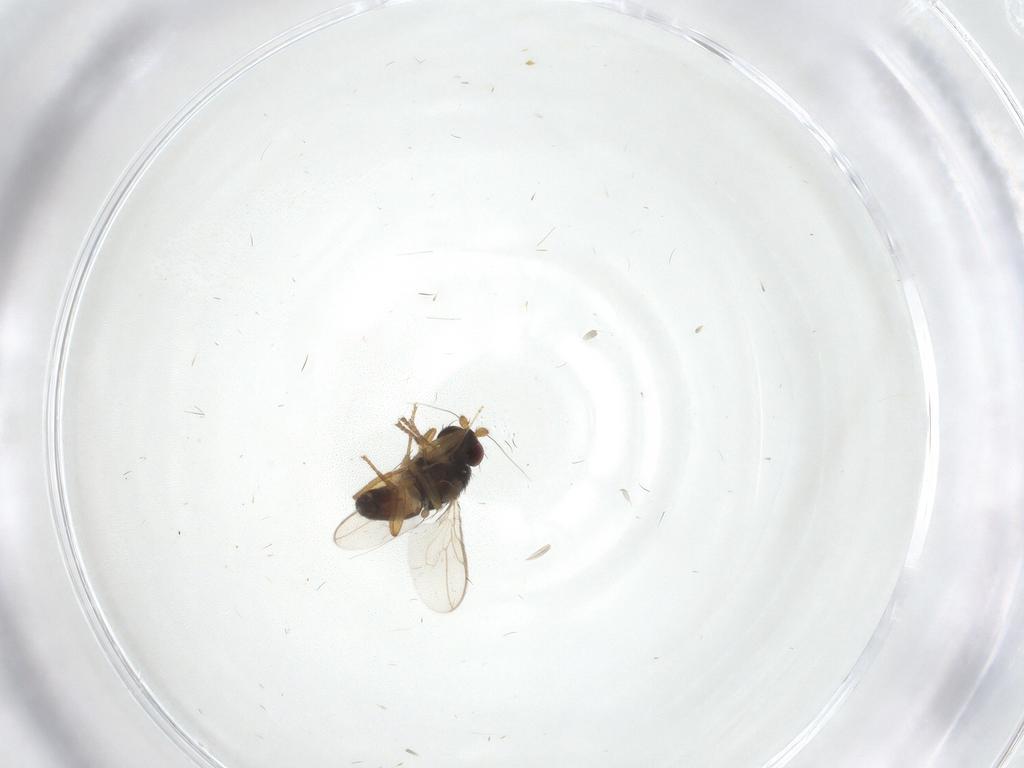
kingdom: Animalia
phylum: Arthropoda
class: Insecta
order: Diptera
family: Sphaeroceridae
